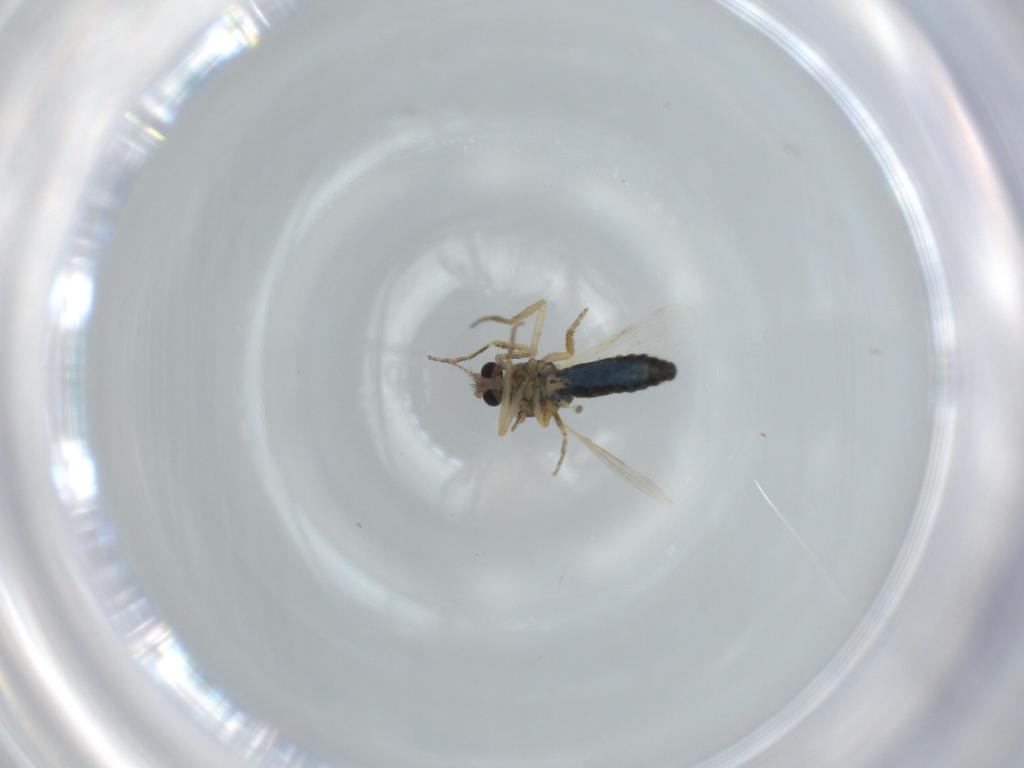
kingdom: Animalia
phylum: Arthropoda
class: Insecta
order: Diptera
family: Ceratopogonidae
